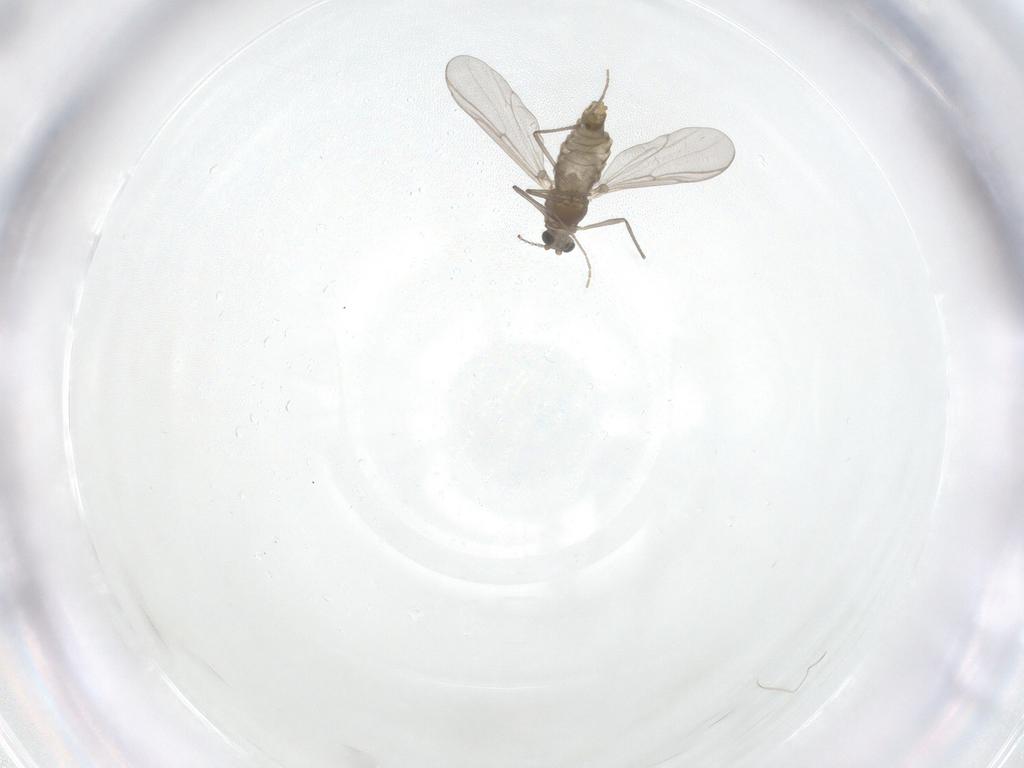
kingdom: Animalia
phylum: Arthropoda
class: Insecta
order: Diptera
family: Chironomidae
